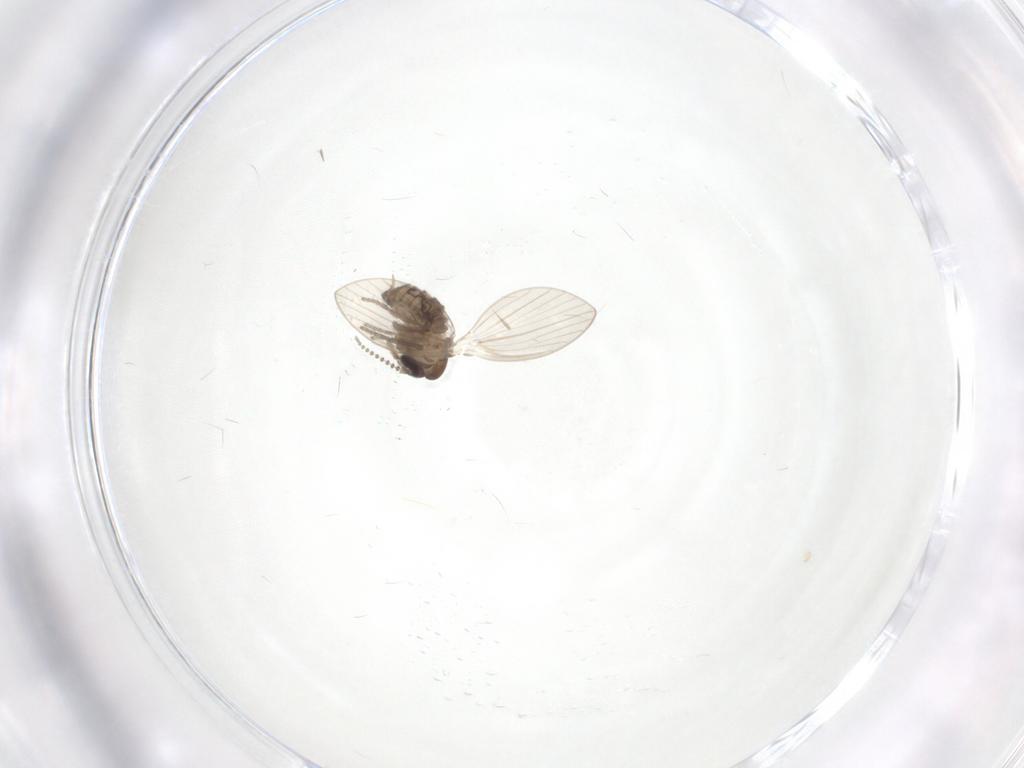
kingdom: Animalia
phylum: Arthropoda
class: Insecta
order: Diptera
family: Psychodidae
